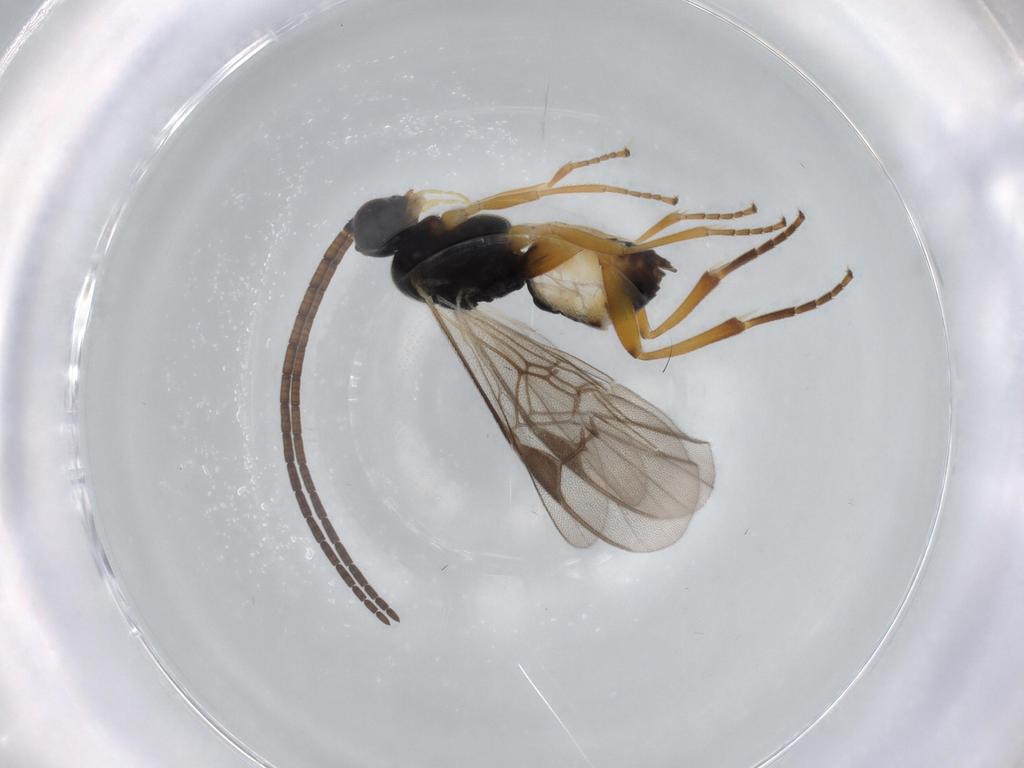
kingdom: Animalia
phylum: Arthropoda
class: Insecta
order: Hymenoptera
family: Braconidae
